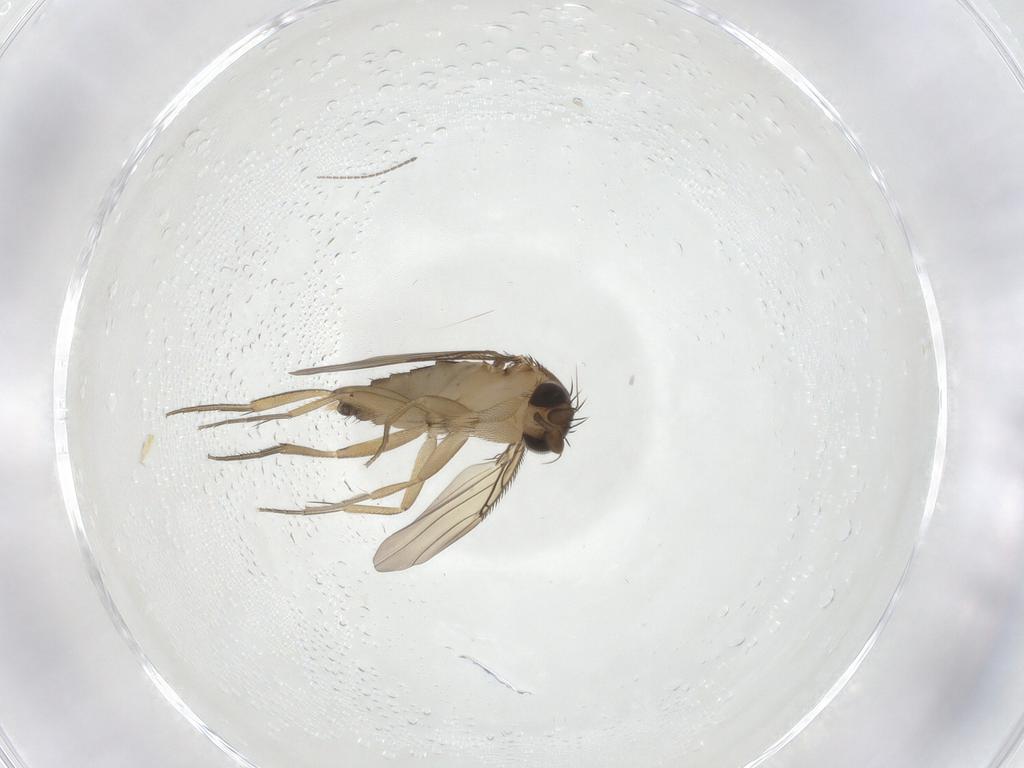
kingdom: Animalia
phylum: Arthropoda
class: Insecta
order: Diptera
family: Phoridae
